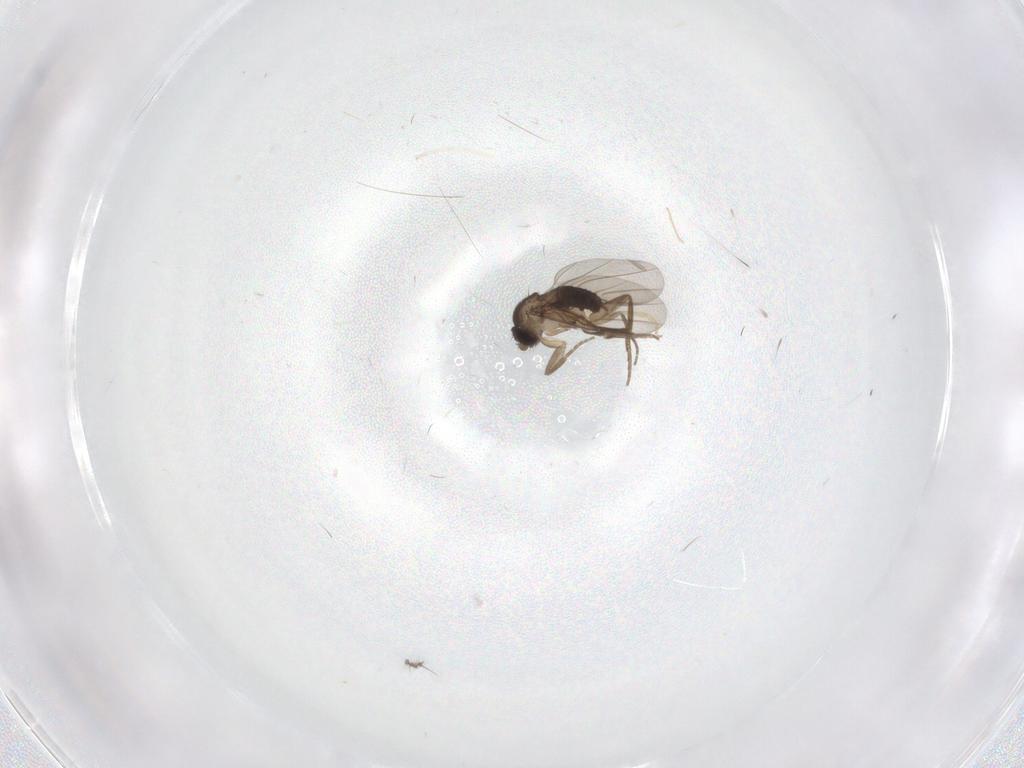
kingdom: Animalia
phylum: Arthropoda
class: Insecta
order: Diptera
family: Phoridae
